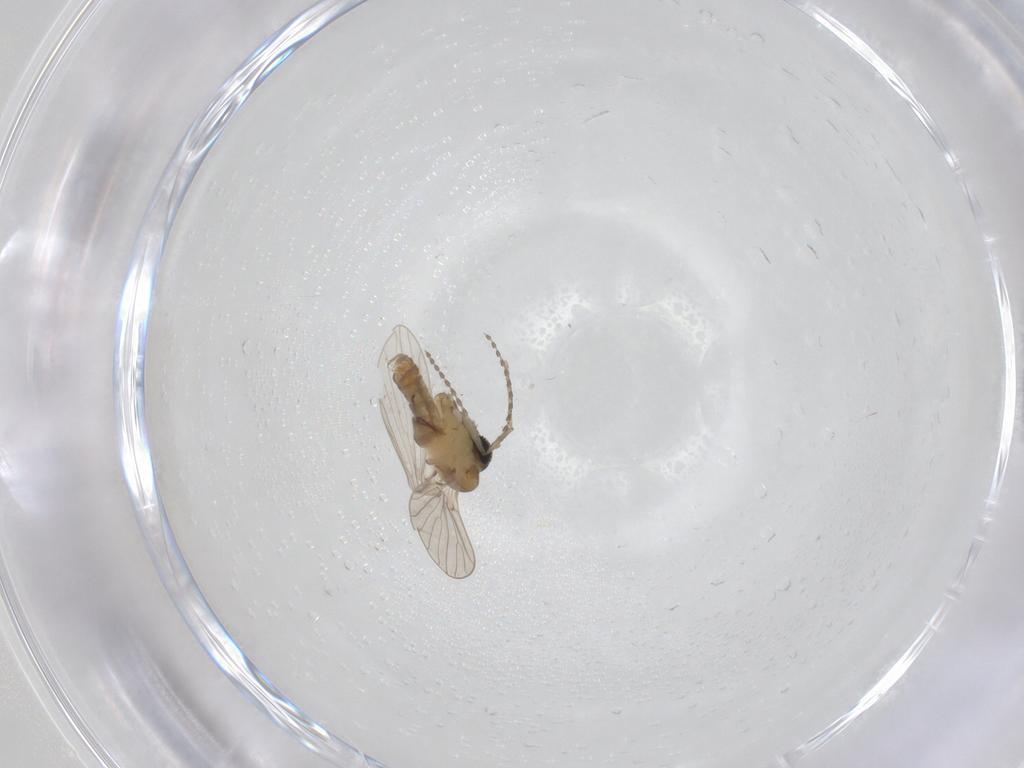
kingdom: Animalia
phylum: Arthropoda
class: Insecta
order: Diptera
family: Psychodidae
